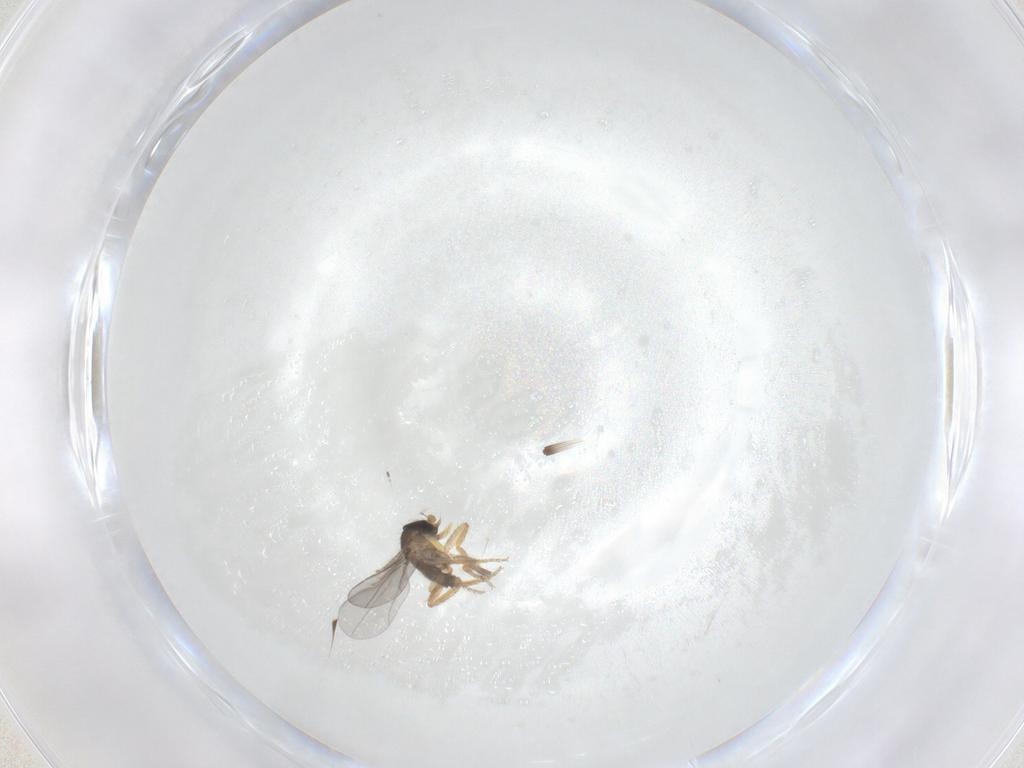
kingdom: Animalia
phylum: Arthropoda
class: Insecta
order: Diptera
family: Phoridae
